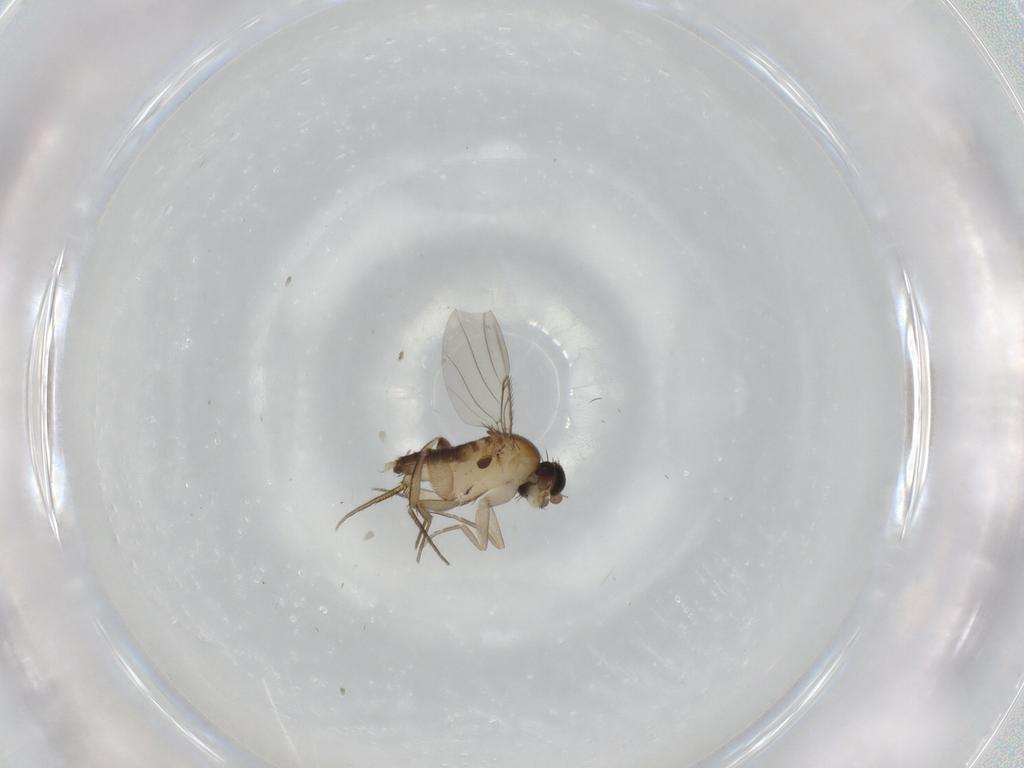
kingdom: Animalia
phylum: Arthropoda
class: Insecta
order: Diptera
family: Phoridae
